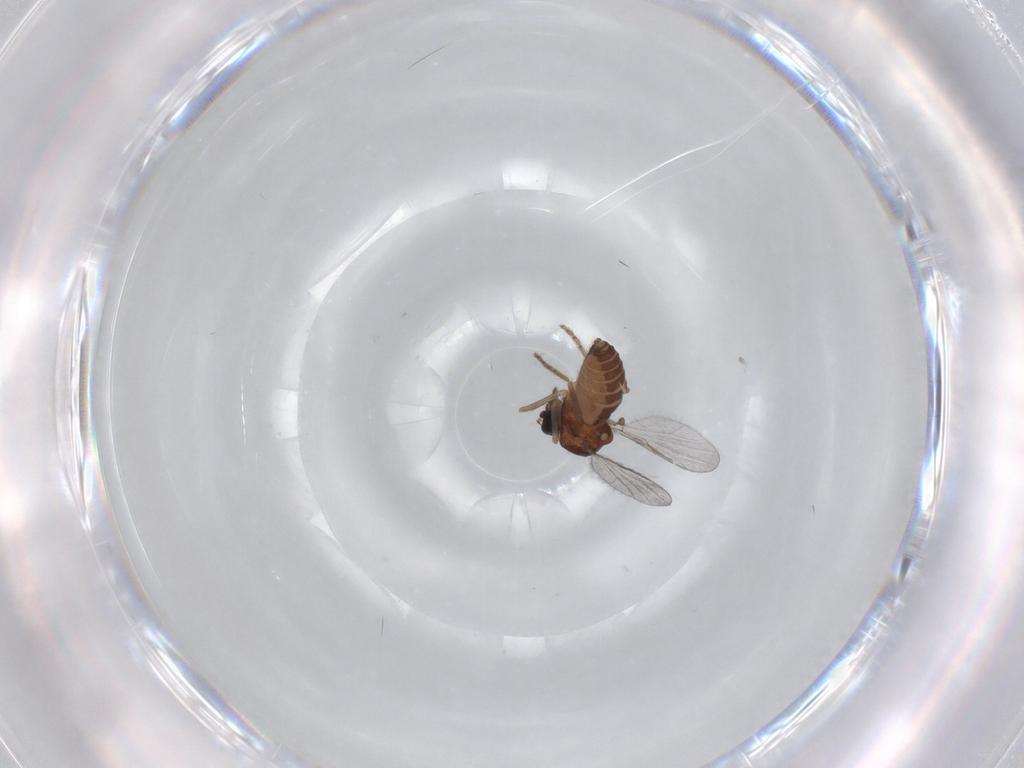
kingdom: Animalia
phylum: Arthropoda
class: Insecta
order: Diptera
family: Ceratopogonidae
